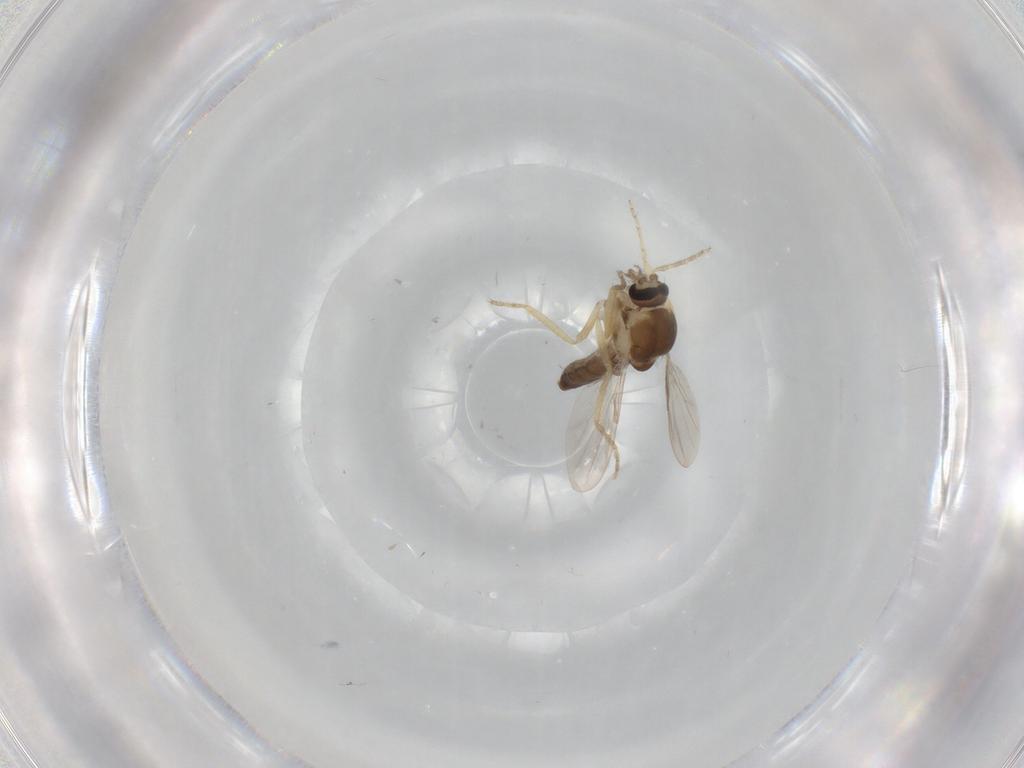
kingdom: Animalia
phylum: Arthropoda
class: Insecta
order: Diptera
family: Ceratopogonidae
